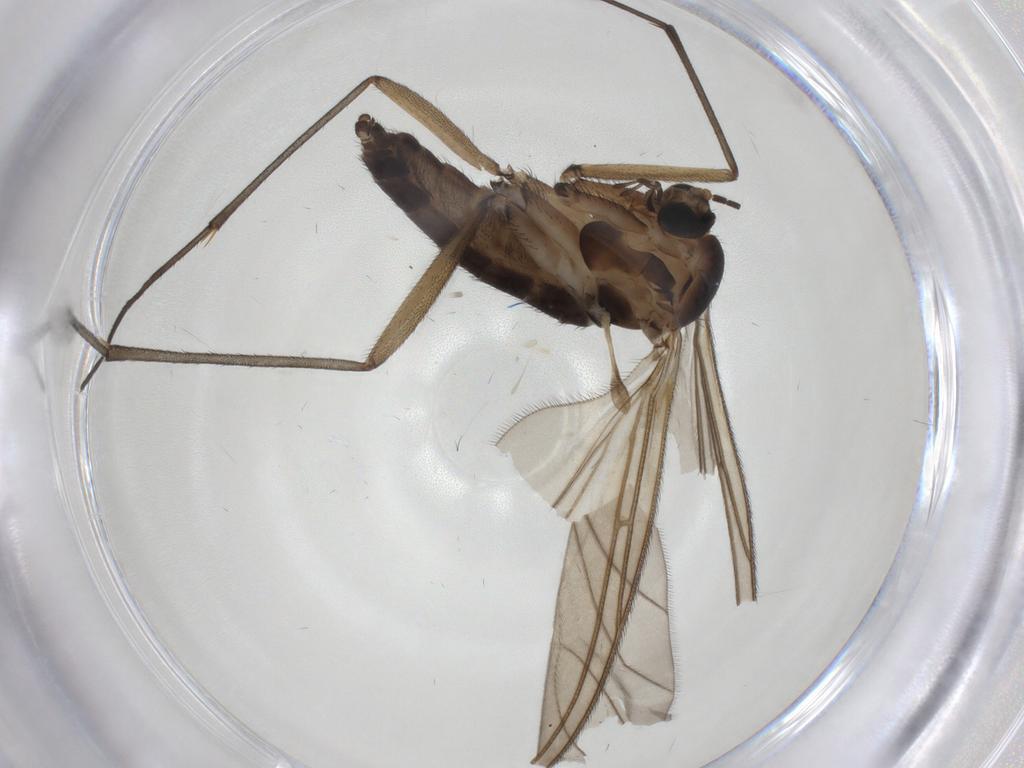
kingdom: Animalia
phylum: Arthropoda
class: Insecta
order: Diptera
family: Sciaridae
